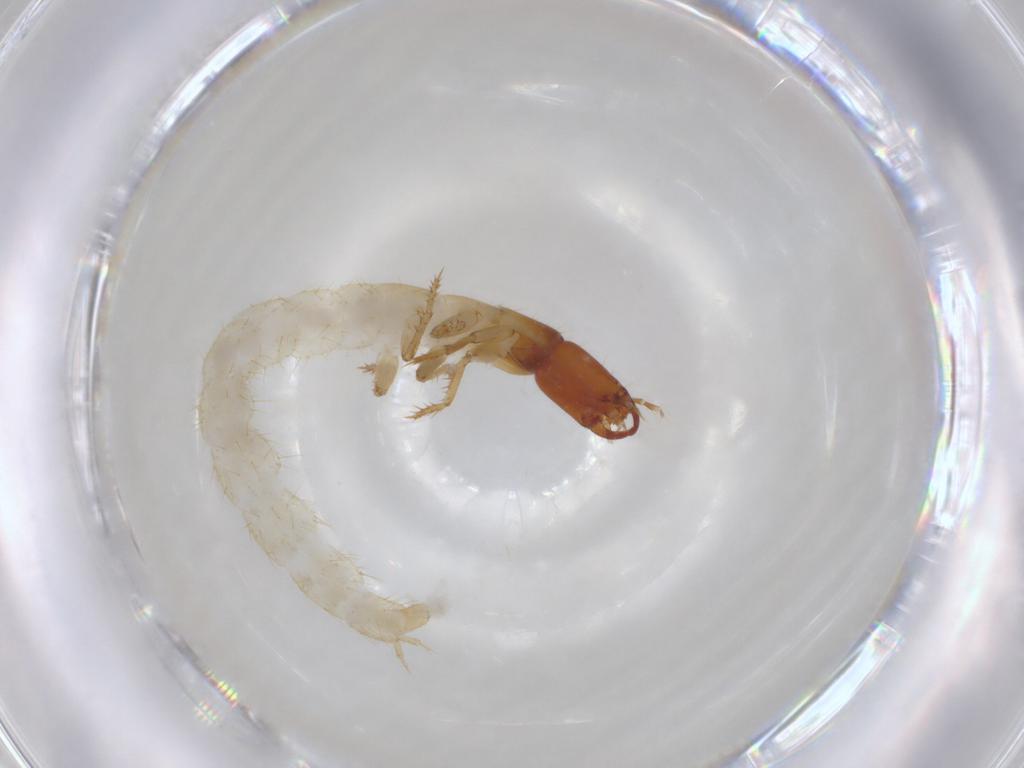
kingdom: Animalia
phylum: Arthropoda
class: Insecta
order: Coleoptera
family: Staphylinidae
